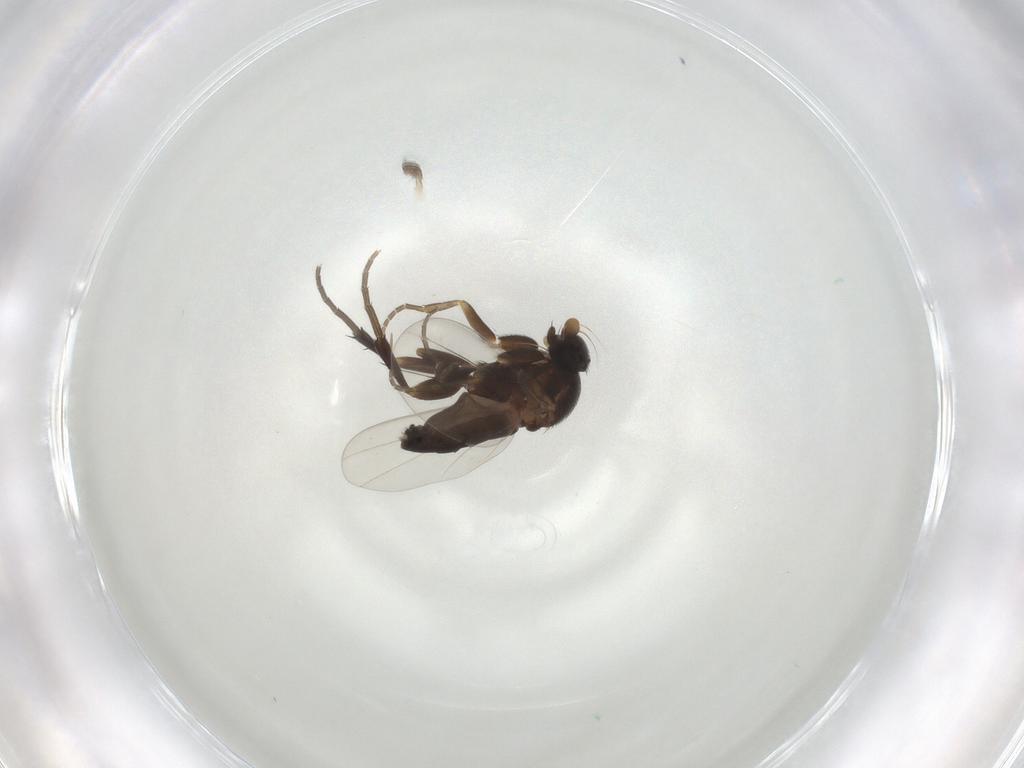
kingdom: Animalia
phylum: Arthropoda
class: Insecta
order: Diptera
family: Phoridae
